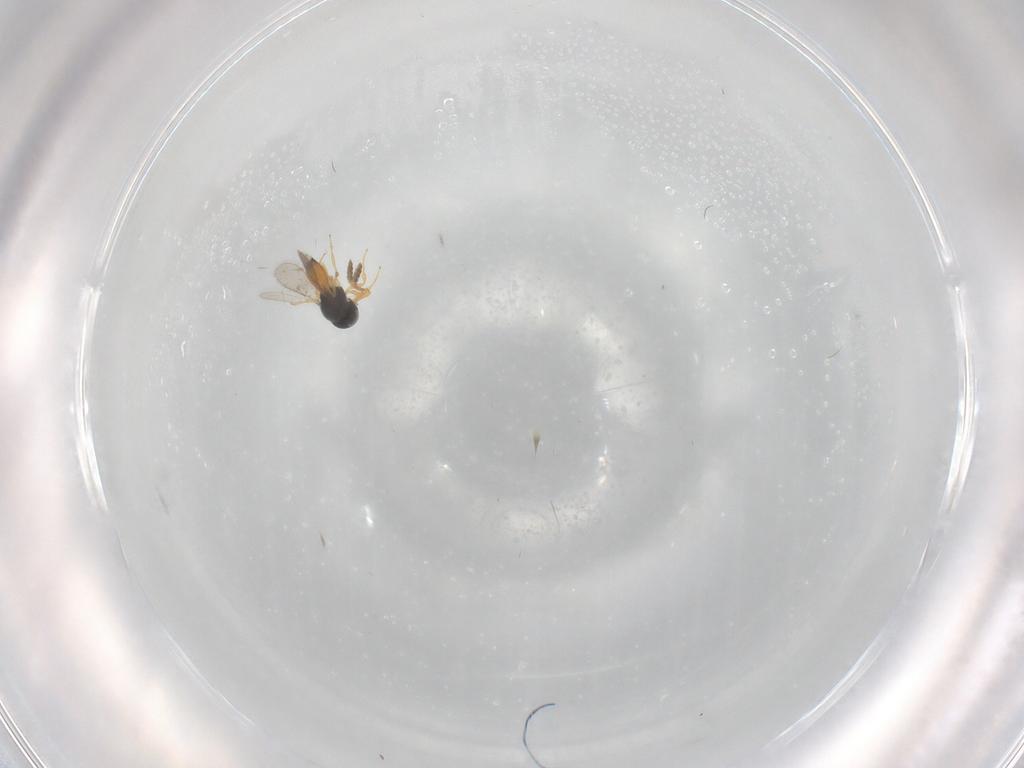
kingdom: Animalia
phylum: Arthropoda
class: Insecta
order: Hymenoptera
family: Scelionidae
